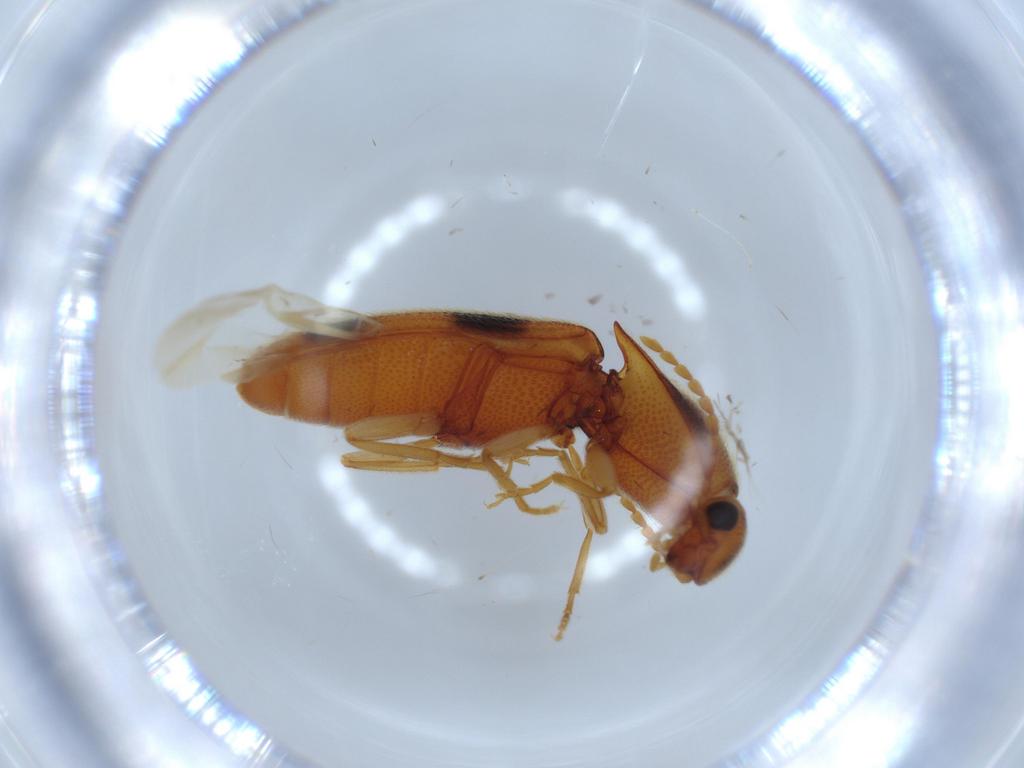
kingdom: Animalia
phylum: Arthropoda
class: Insecta
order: Coleoptera
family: Elateridae
